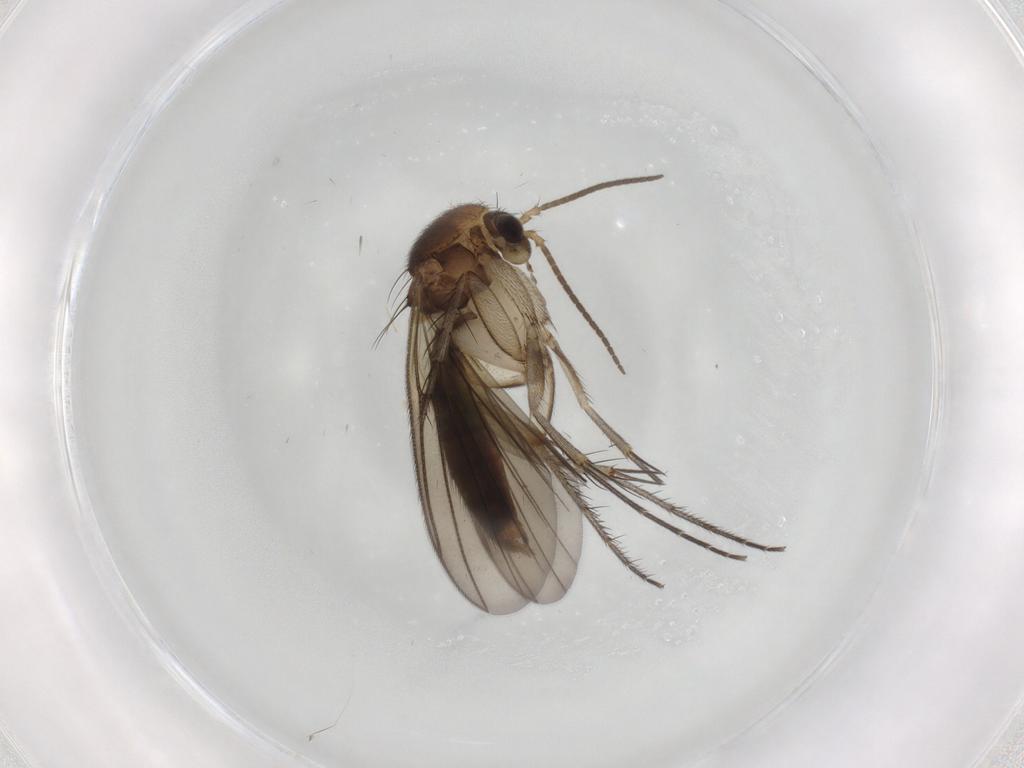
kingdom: Animalia
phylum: Arthropoda
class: Insecta
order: Diptera
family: Mycetophilidae
